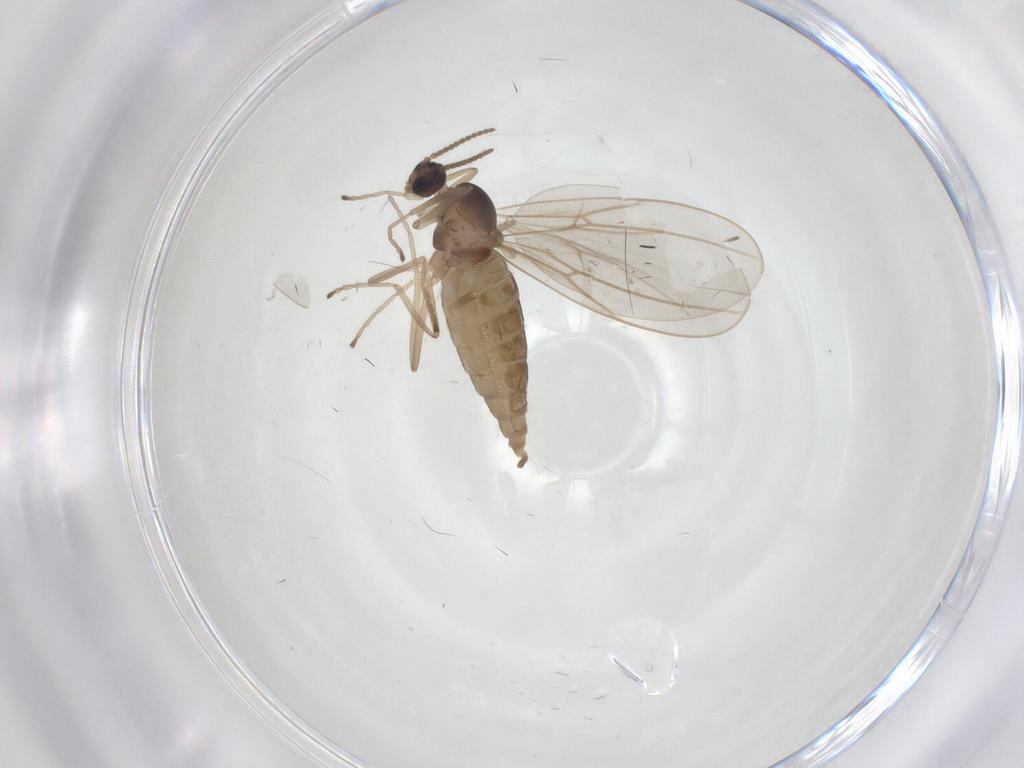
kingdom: Animalia
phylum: Arthropoda
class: Insecta
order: Diptera
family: Cecidomyiidae
